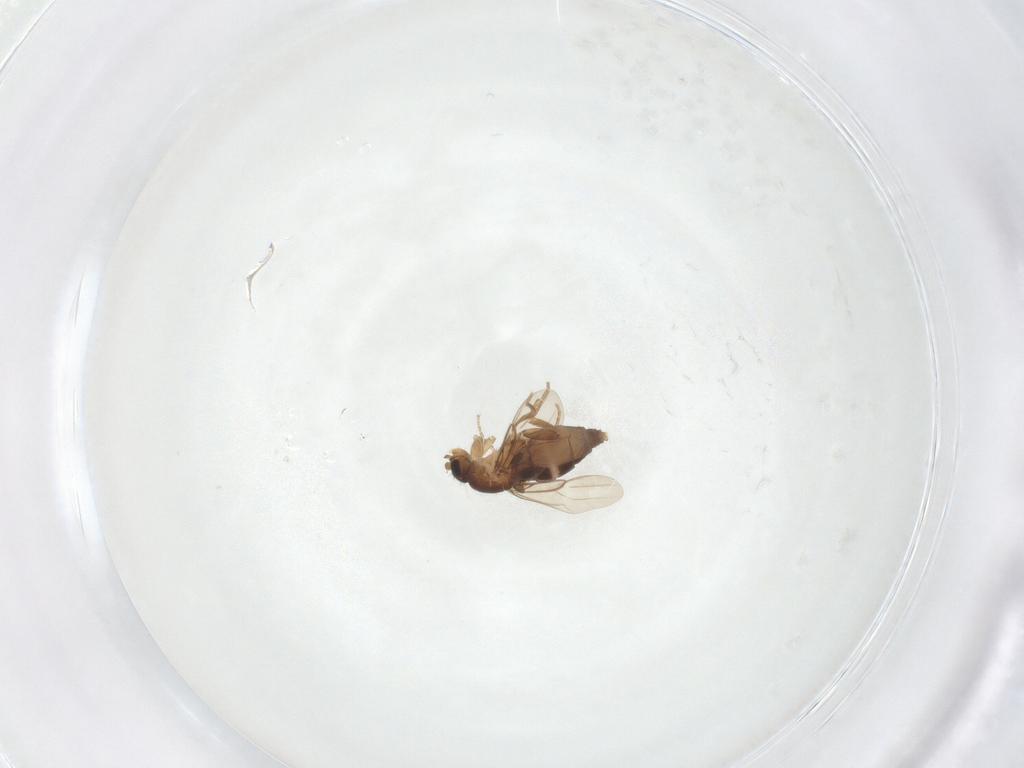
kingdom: Animalia
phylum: Arthropoda
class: Insecta
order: Diptera
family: Phoridae
